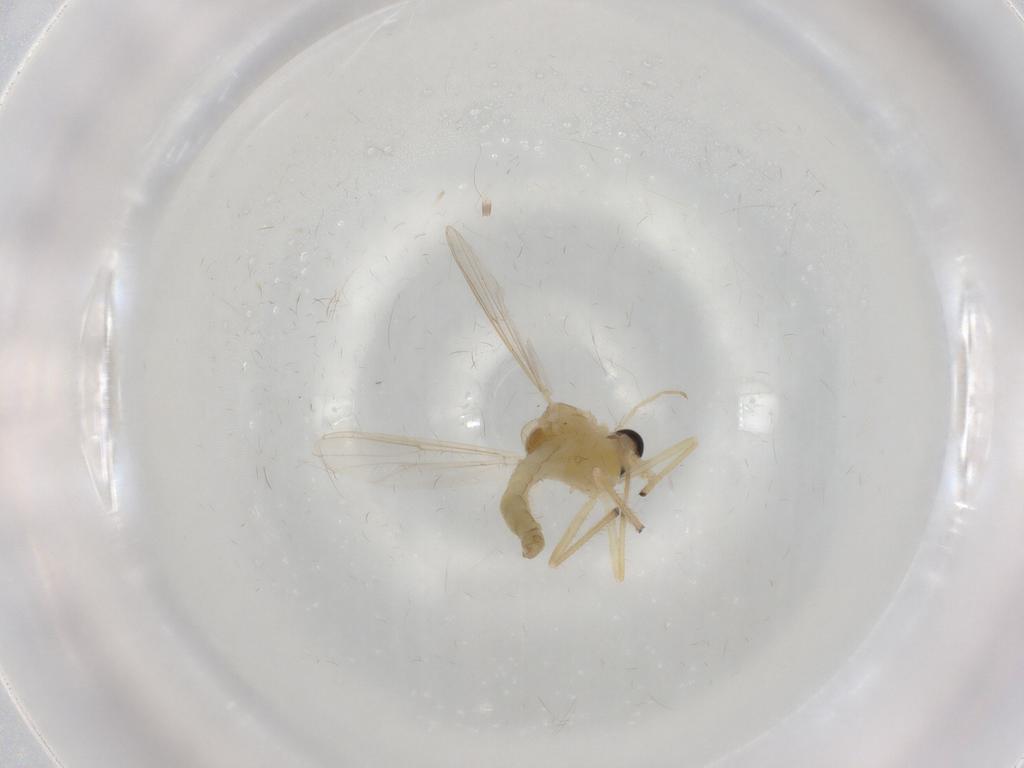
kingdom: Animalia
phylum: Arthropoda
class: Insecta
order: Diptera
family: Chironomidae
